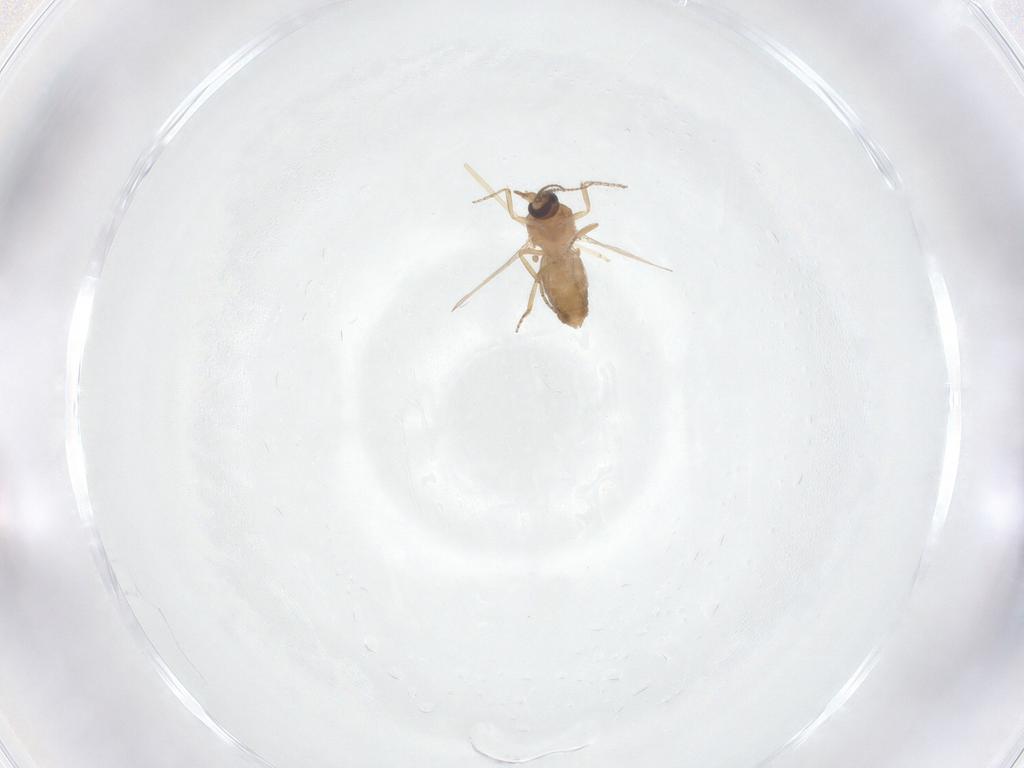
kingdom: Animalia
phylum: Arthropoda
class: Insecta
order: Diptera
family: Ceratopogonidae
